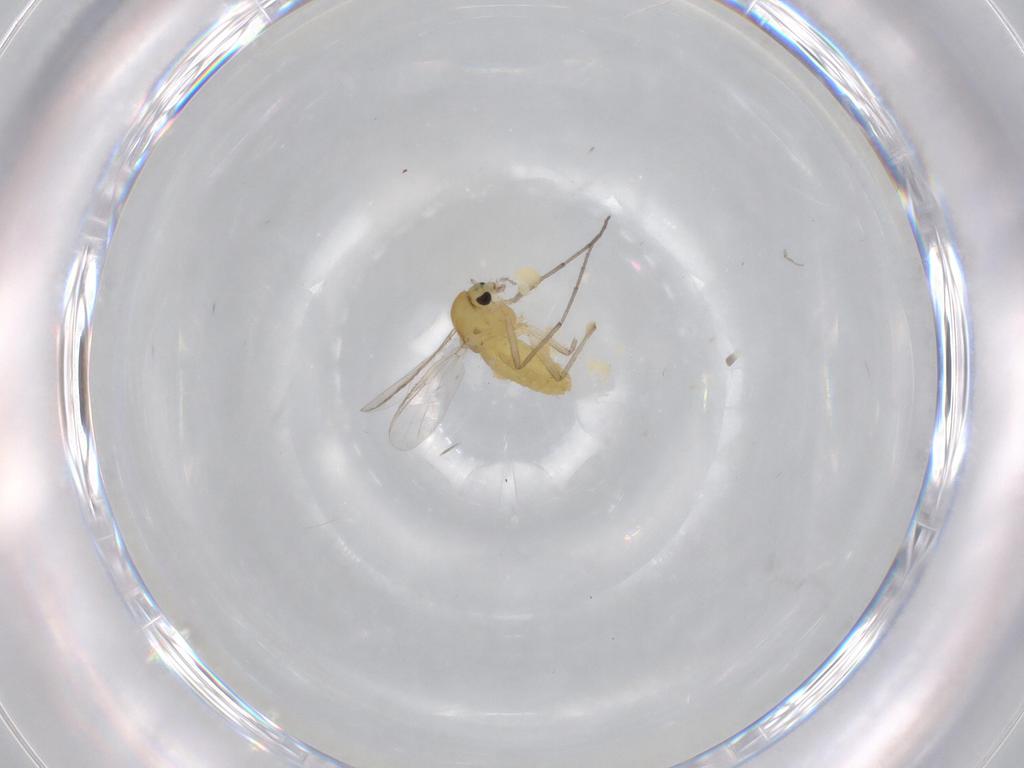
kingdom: Animalia
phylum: Arthropoda
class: Insecta
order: Diptera
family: Chironomidae
